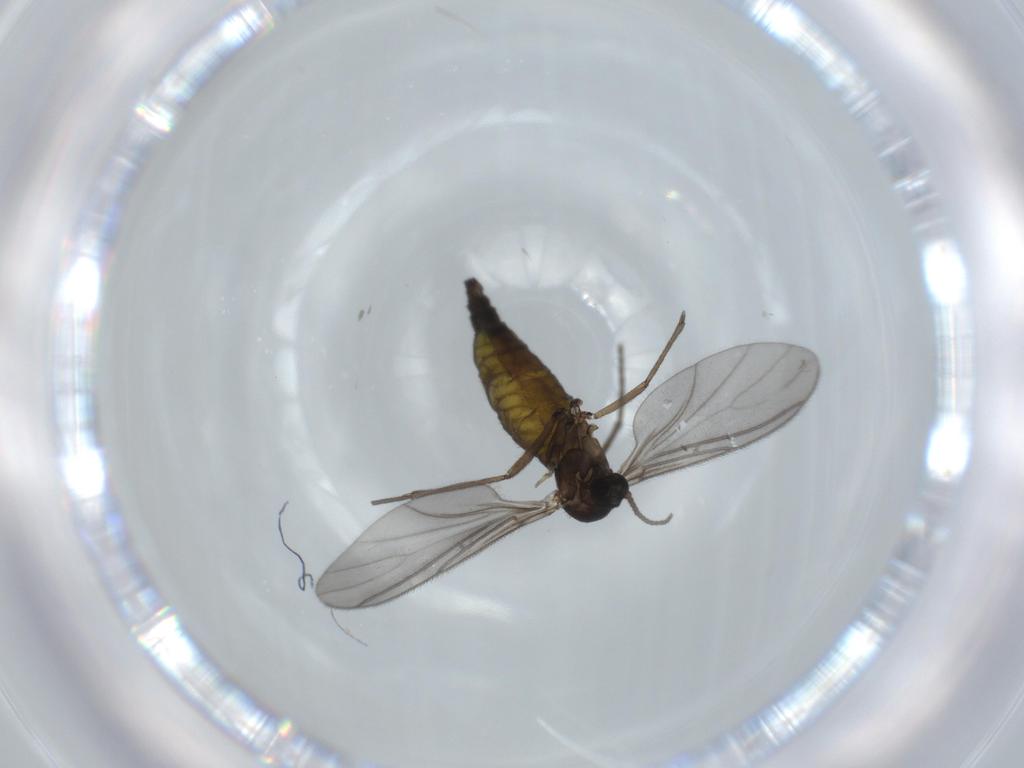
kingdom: Animalia
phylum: Arthropoda
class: Insecta
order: Diptera
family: Sciaridae
